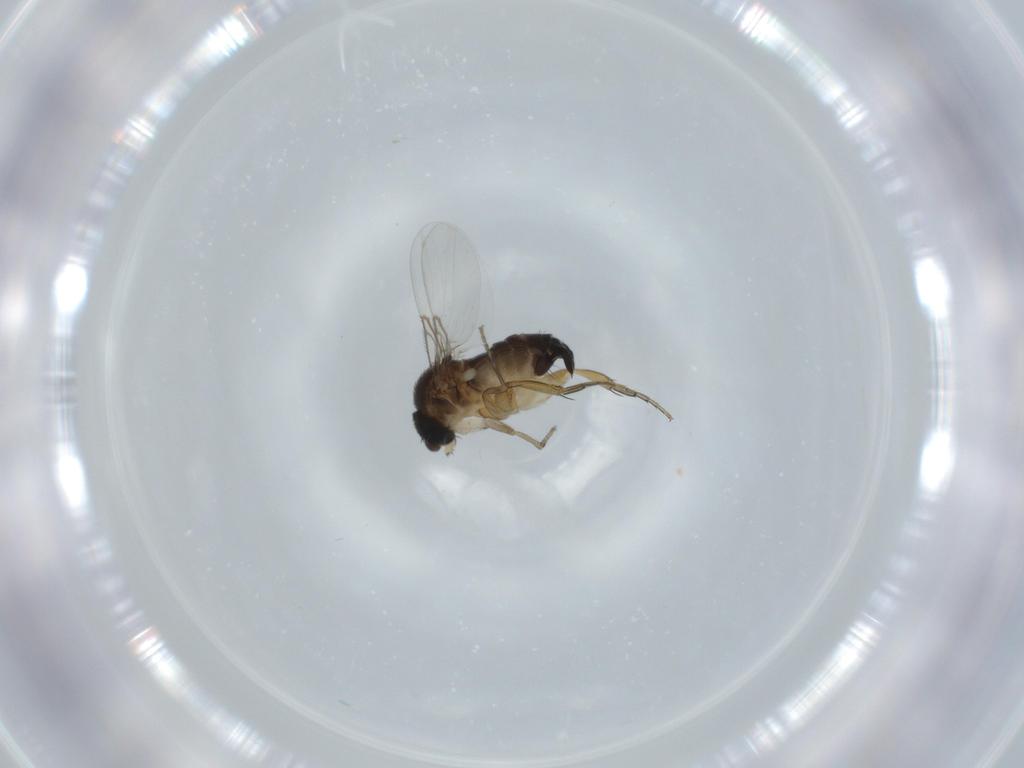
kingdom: Animalia
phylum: Arthropoda
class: Insecta
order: Diptera
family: Phoridae
